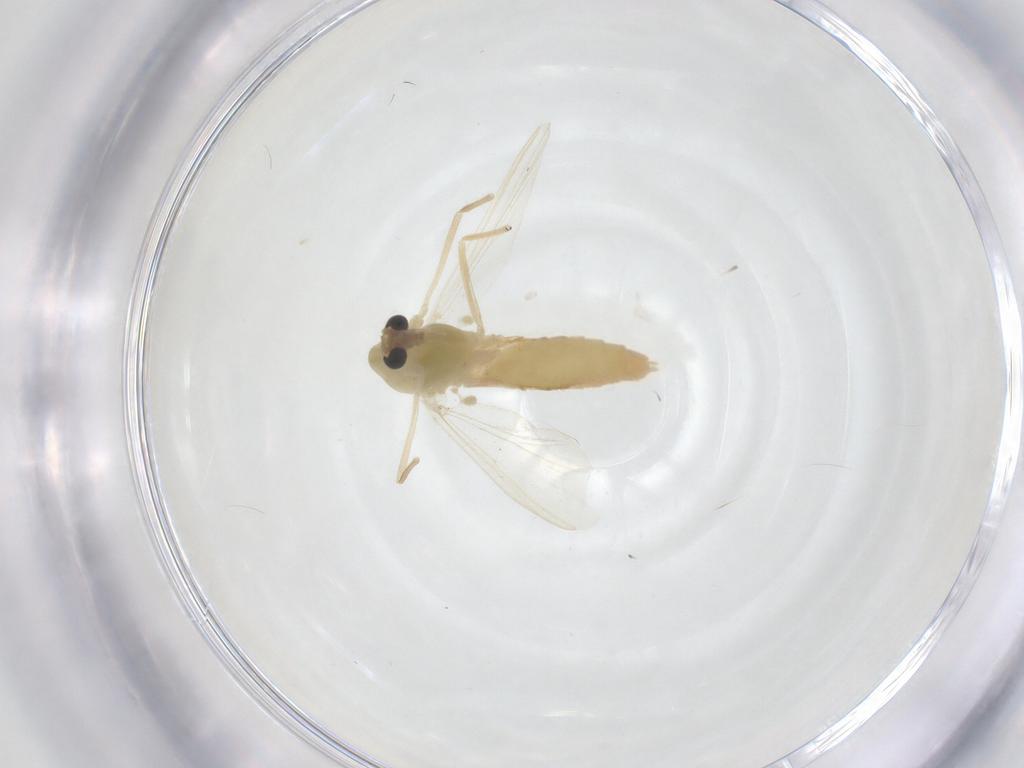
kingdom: Animalia
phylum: Arthropoda
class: Insecta
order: Diptera
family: Chironomidae
